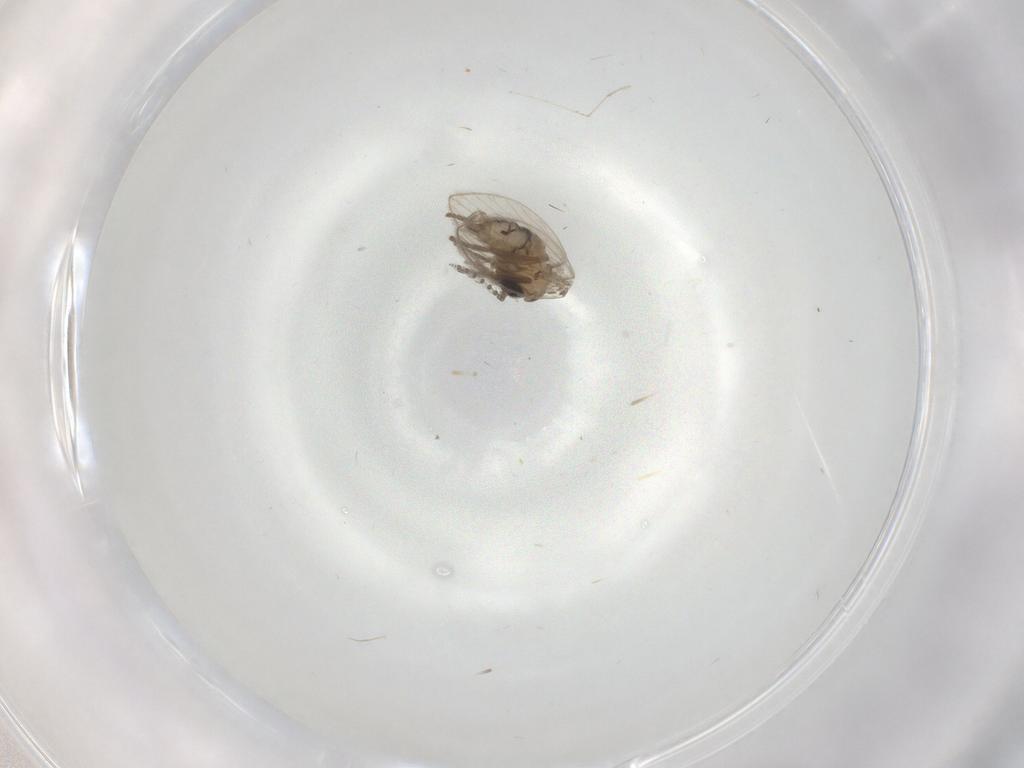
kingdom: Animalia
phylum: Arthropoda
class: Insecta
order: Diptera
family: Psychodidae
